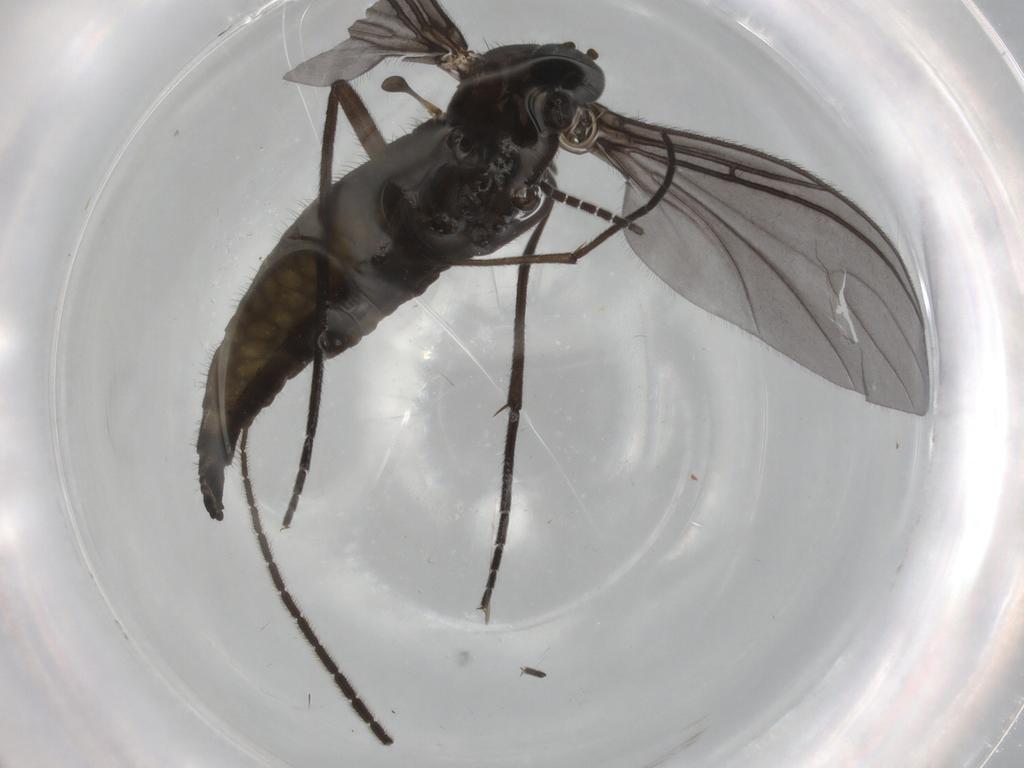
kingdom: Animalia
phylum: Arthropoda
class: Insecta
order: Diptera
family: Sciaridae
